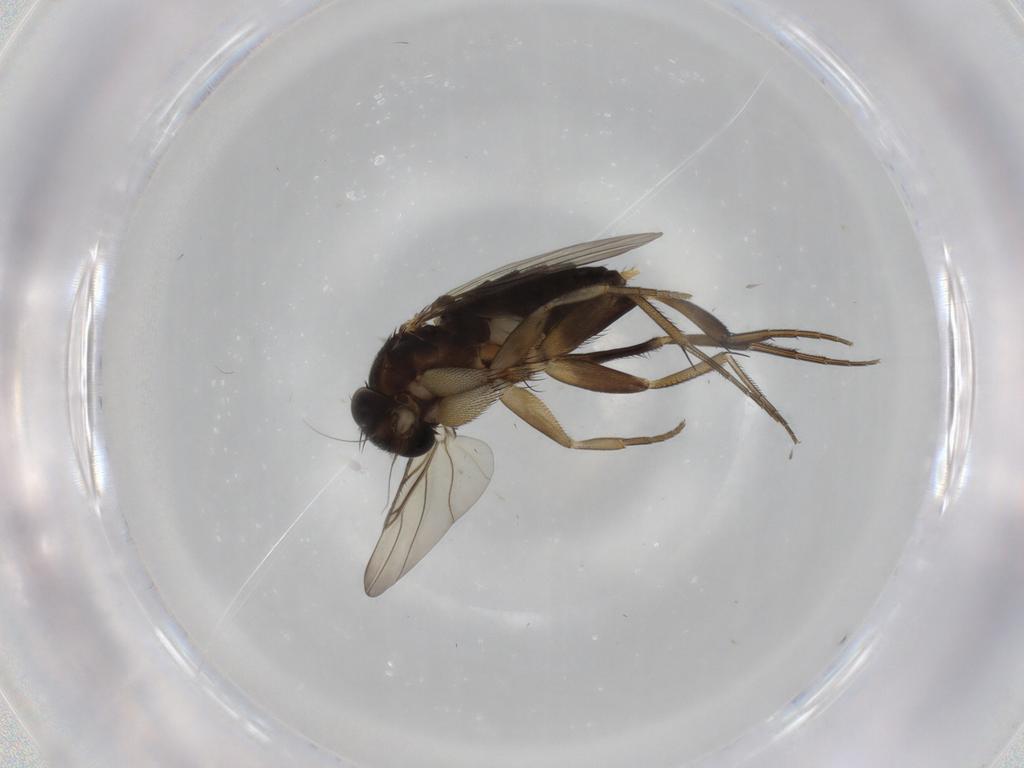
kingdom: Animalia
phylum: Arthropoda
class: Insecta
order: Diptera
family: Phoridae
